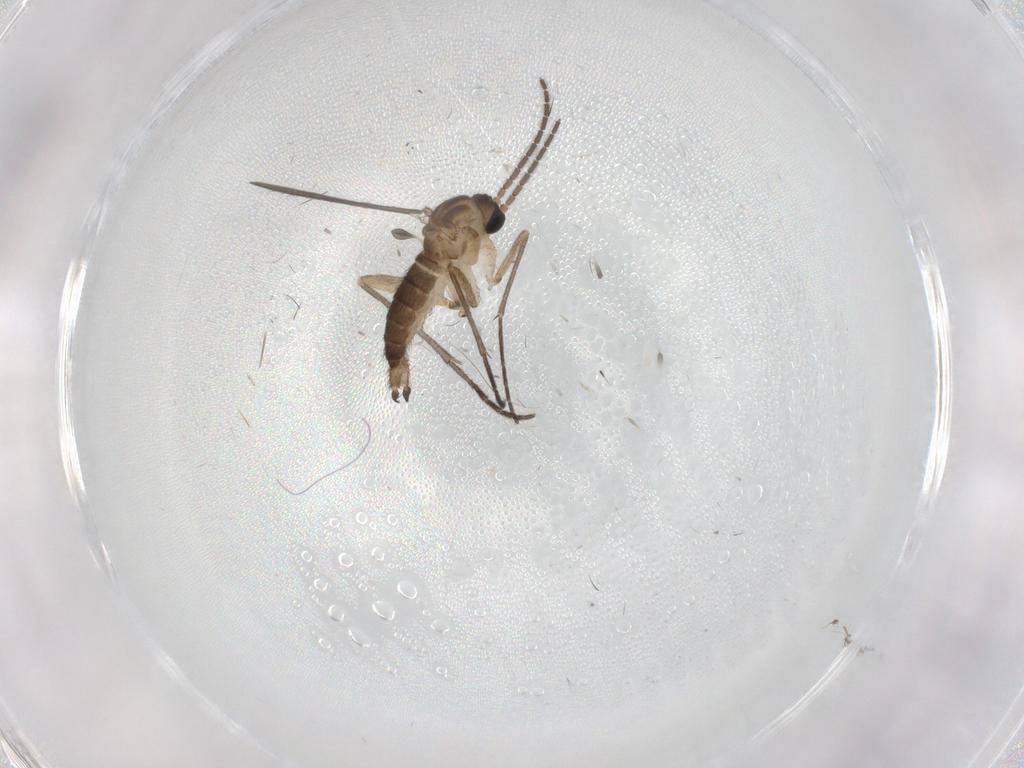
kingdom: Animalia
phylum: Arthropoda
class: Insecta
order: Diptera
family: Sciaridae
